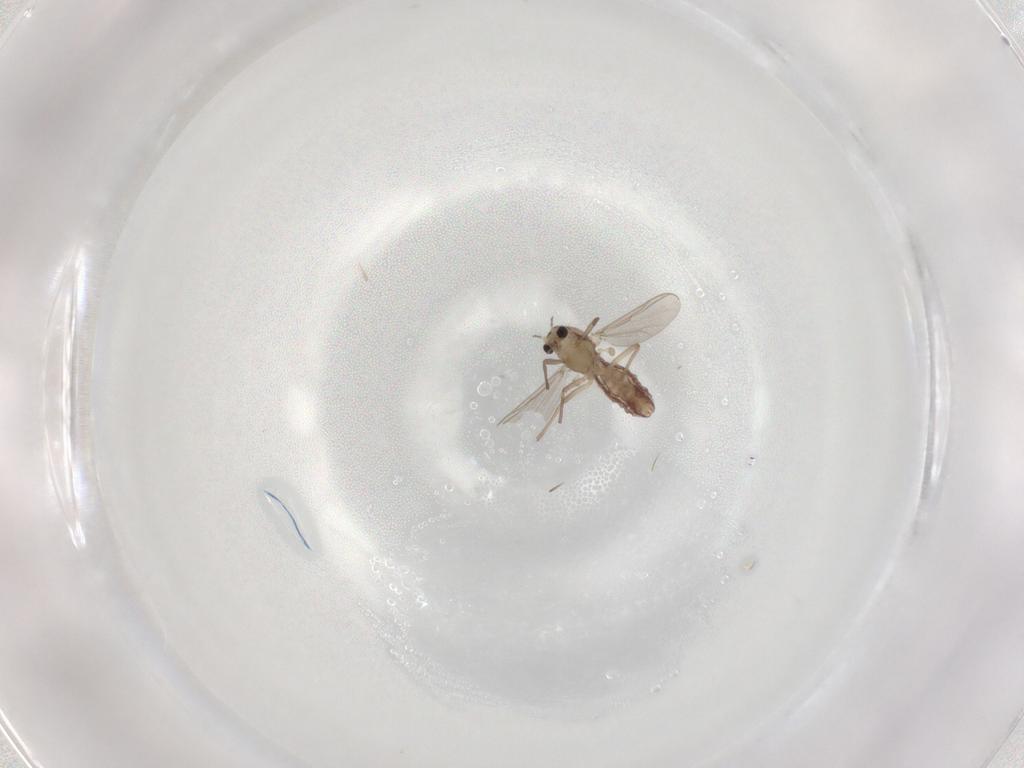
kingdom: Animalia
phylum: Arthropoda
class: Insecta
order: Diptera
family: Chironomidae
